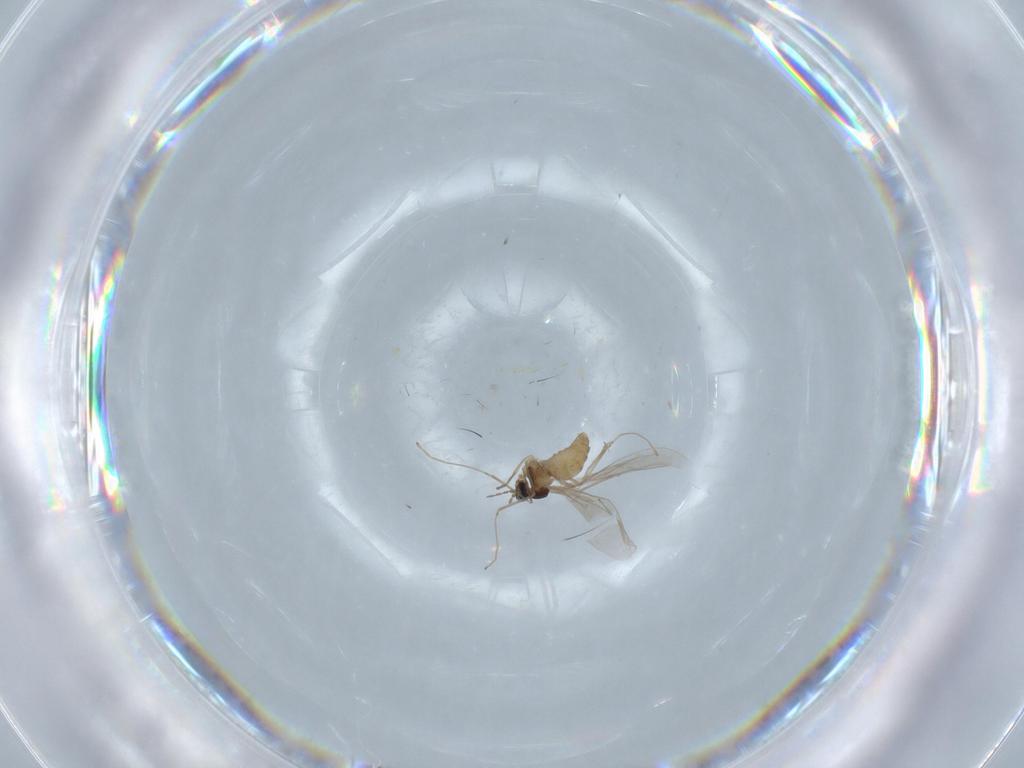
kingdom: Animalia
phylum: Arthropoda
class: Insecta
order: Diptera
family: Cecidomyiidae
